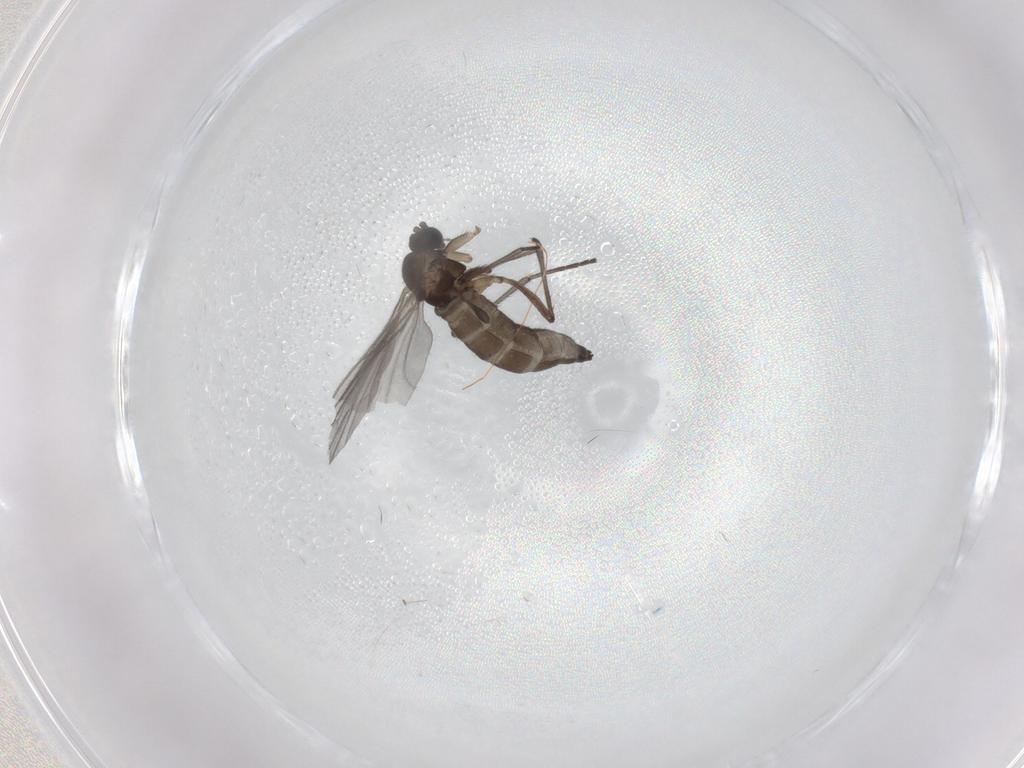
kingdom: Animalia
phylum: Arthropoda
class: Insecta
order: Diptera
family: Sciaridae
